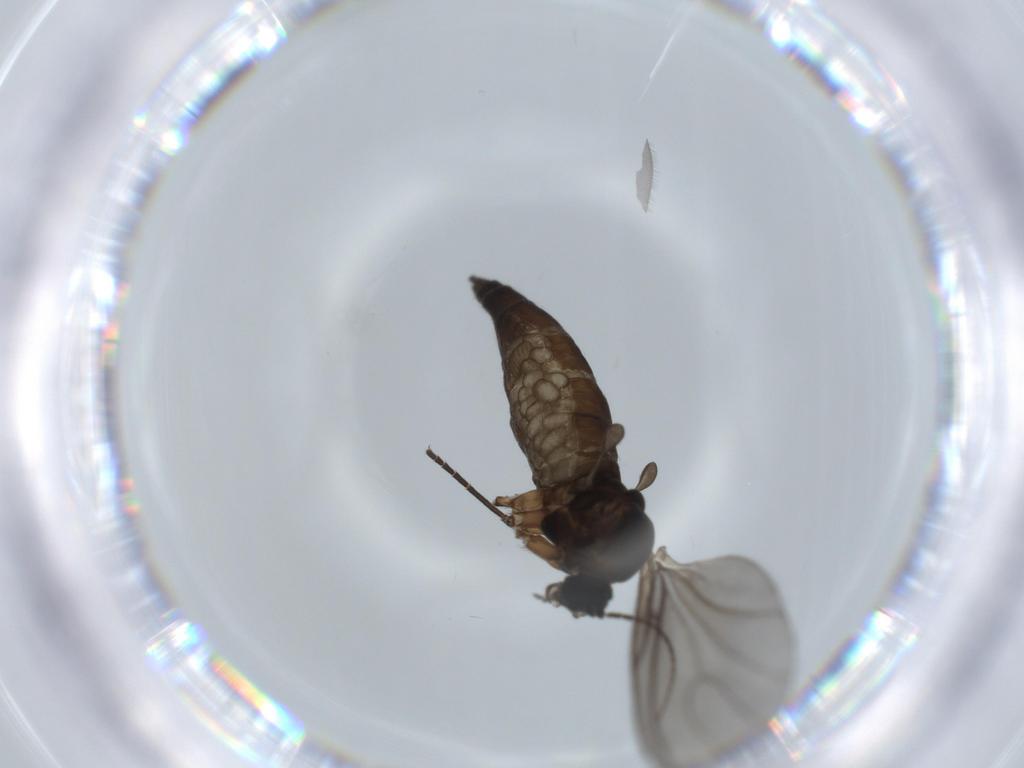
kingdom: Animalia
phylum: Arthropoda
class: Insecta
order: Diptera
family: Sciaridae
